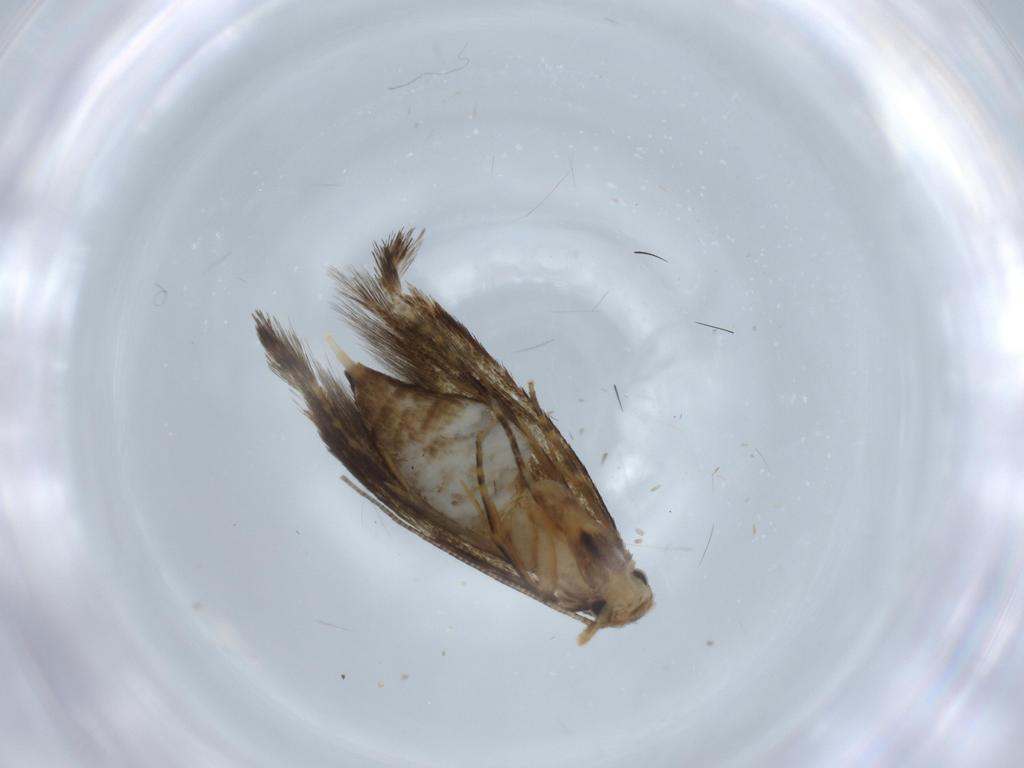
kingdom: Animalia
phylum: Arthropoda
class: Insecta
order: Lepidoptera
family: Tineidae
